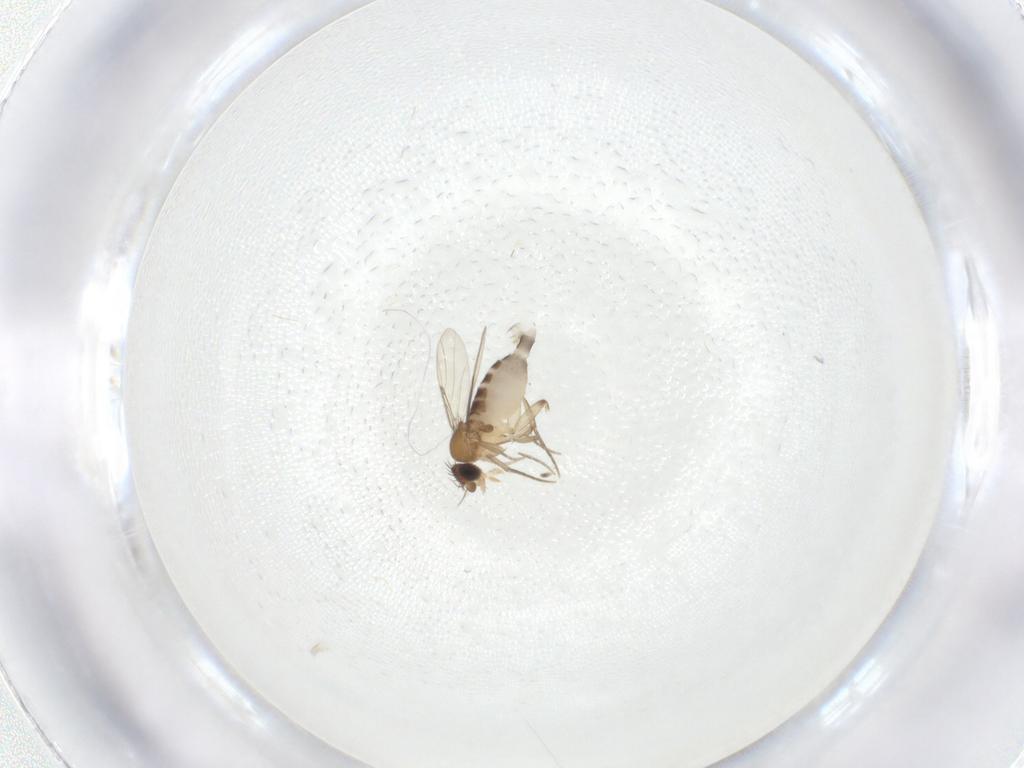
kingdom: Animalia
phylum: Arthropoda
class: Insecta
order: Diptera
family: Phoridae
